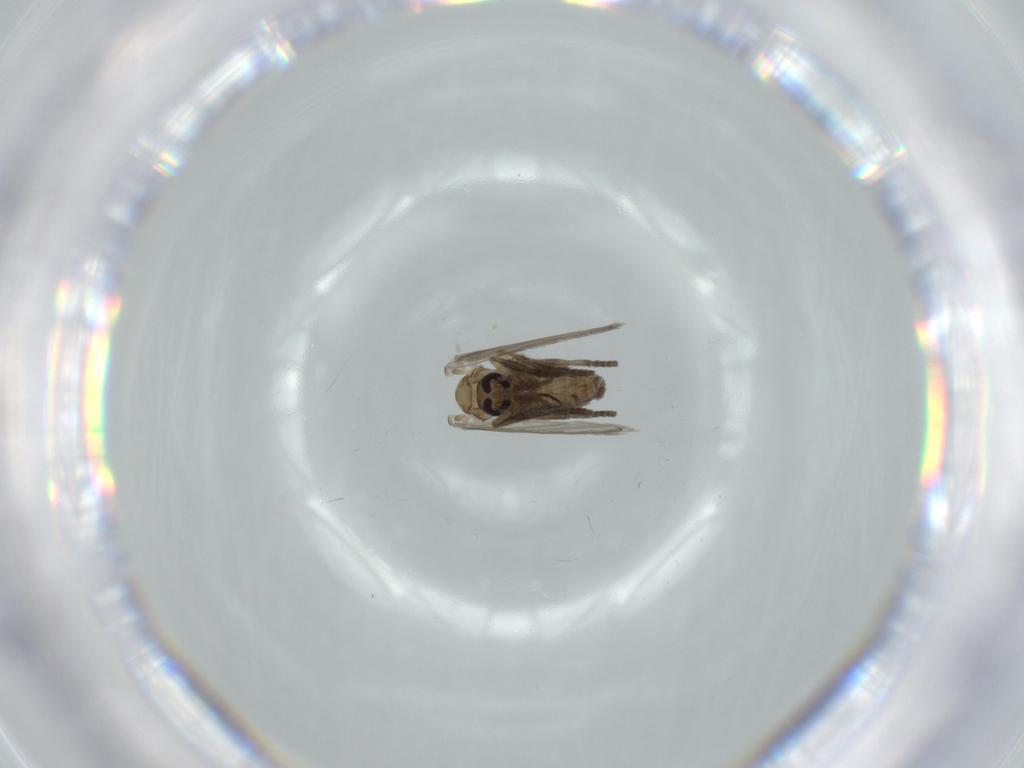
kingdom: Animalia
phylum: Arthropoda
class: Insecta
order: Diptera
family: Psychodidae
